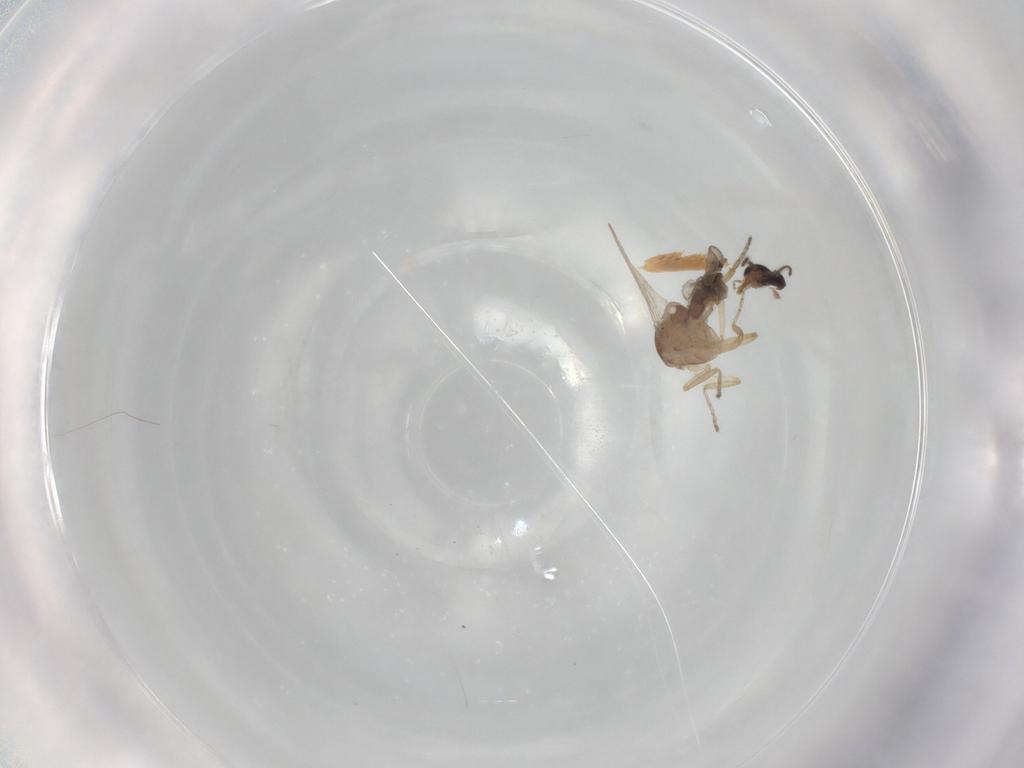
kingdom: Animalia
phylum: Arthropoda
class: Insecta
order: Diptera
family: Ceratopogonidae
